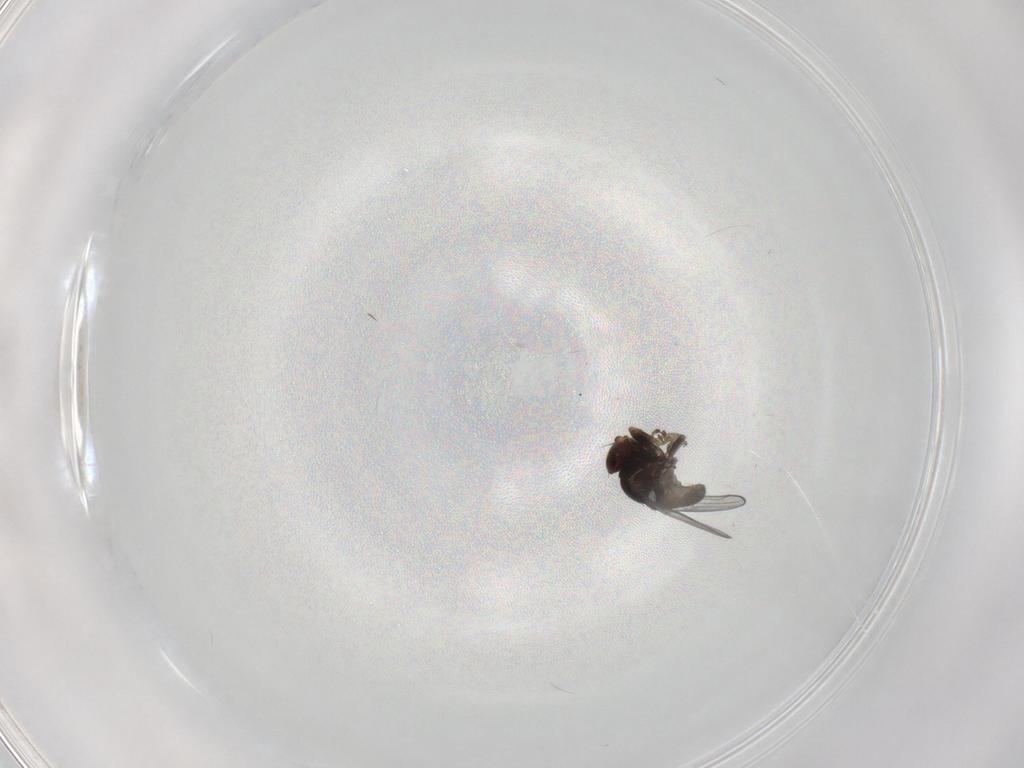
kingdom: Animalia
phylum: Arthropoda
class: Insecta
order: Diptera
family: Chloropidae
